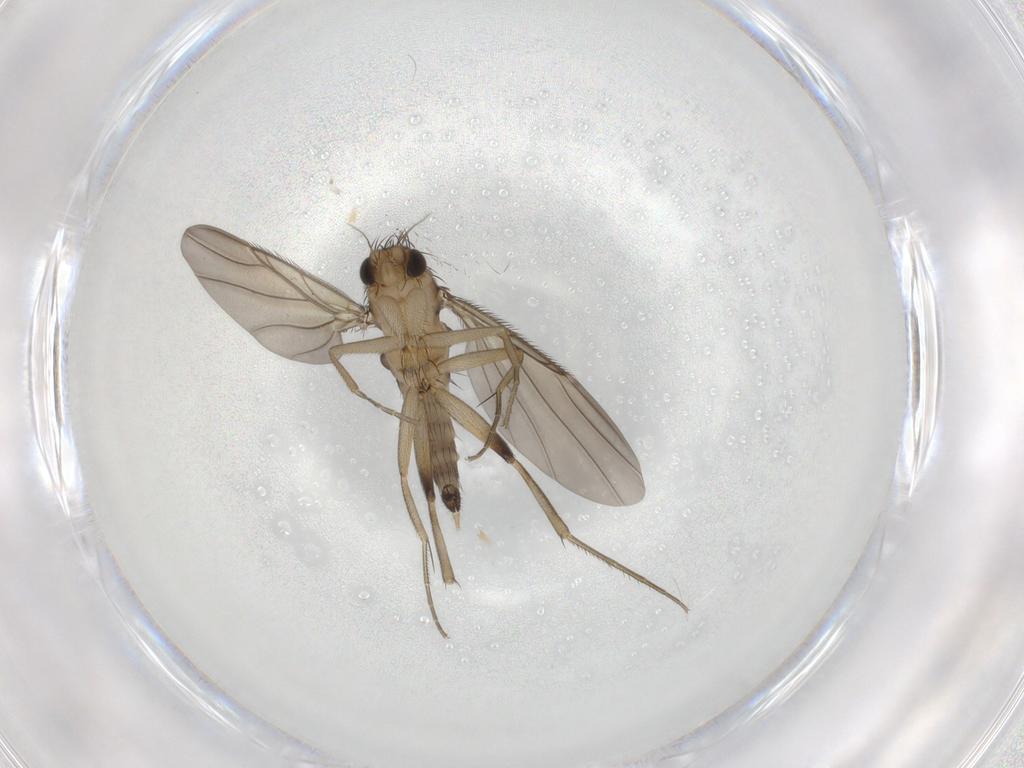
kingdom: Animalia
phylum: Arthropoda
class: Insecta
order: Diptera
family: Phoridae
